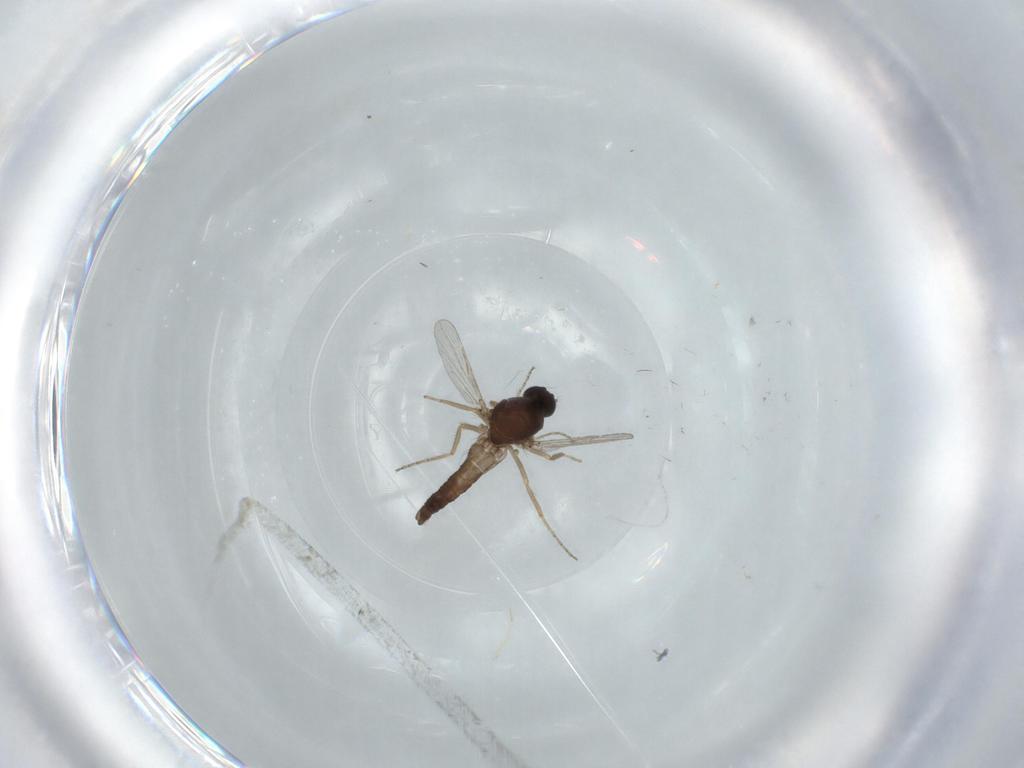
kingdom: Animalia
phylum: Arthropoda
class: Insecta
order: Diptera
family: Ceratopogonidae
